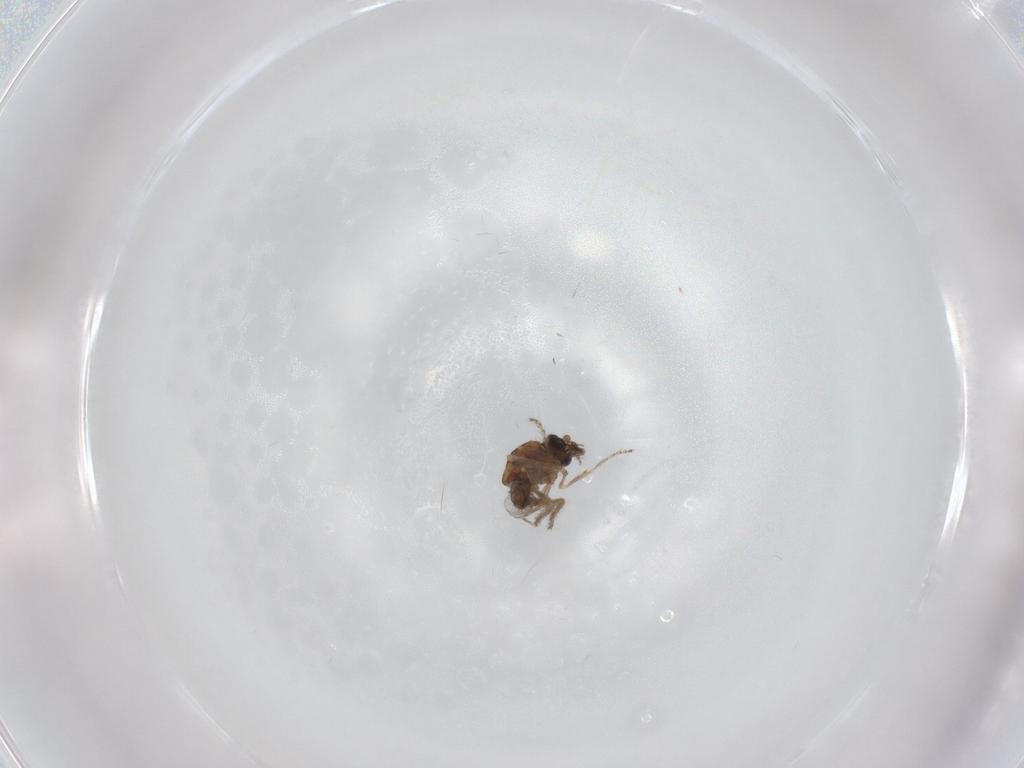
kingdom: Animalia
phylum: Arthropoda
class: Insecta
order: Diptera
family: Ceratopogonidae
